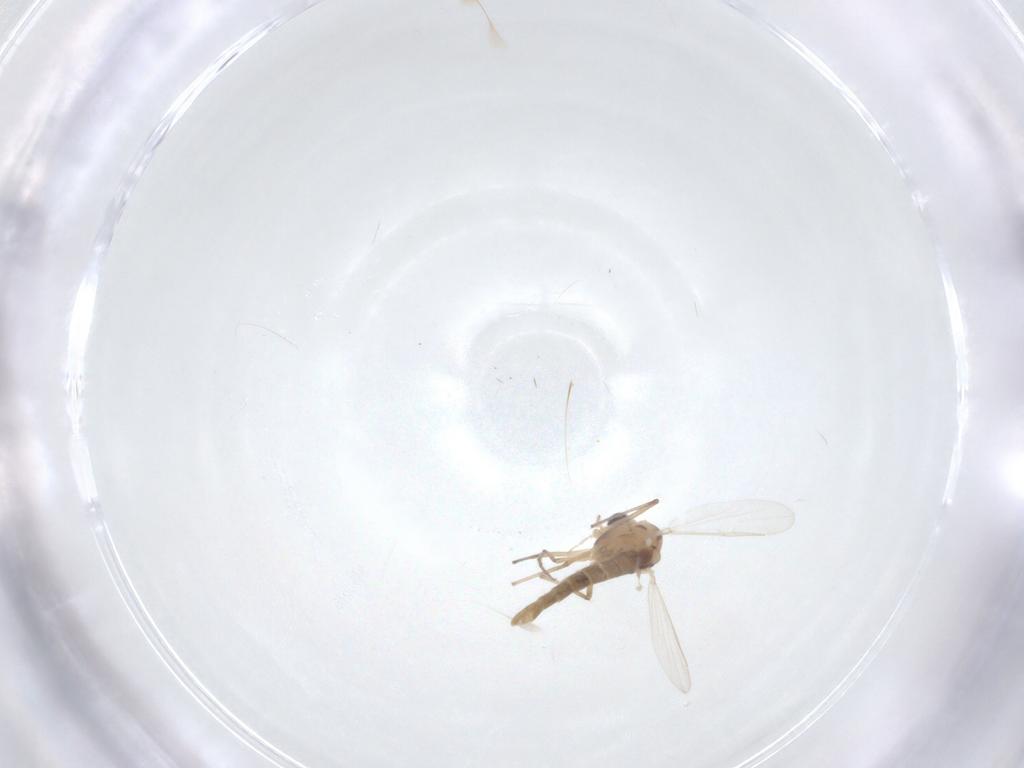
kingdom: Animalia
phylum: Arthropoda
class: Insecta
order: Diptera
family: Chironomidae
